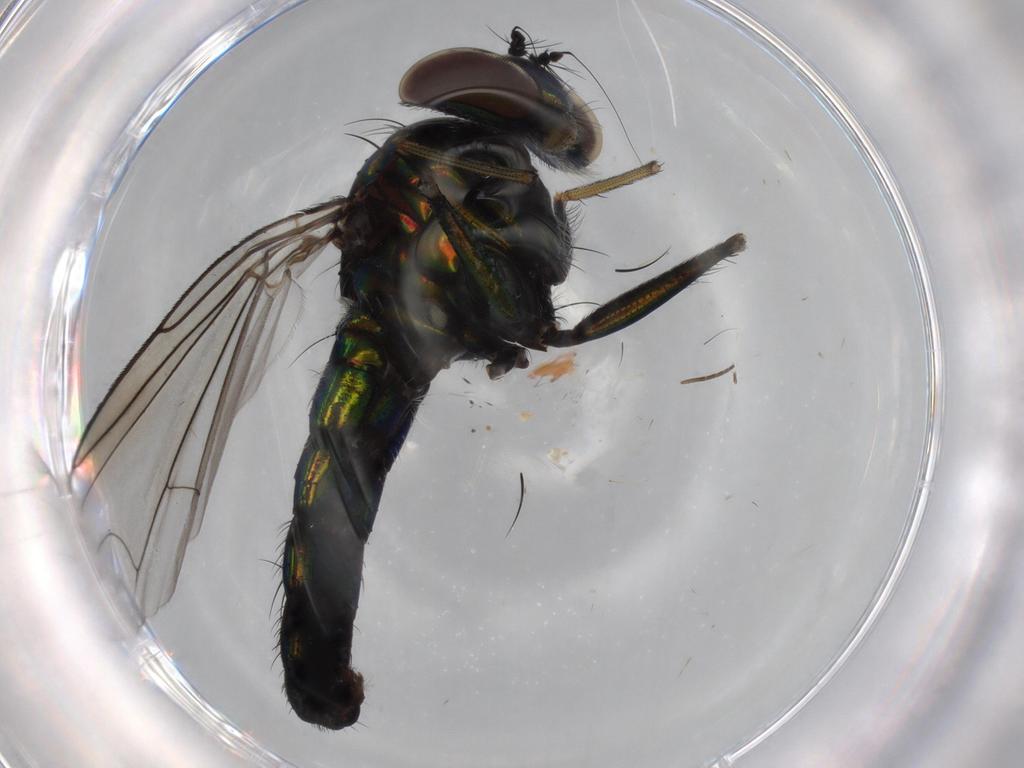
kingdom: Animalia
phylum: Arthropoda
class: Insecta
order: Diptera
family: Dolichopodidae
